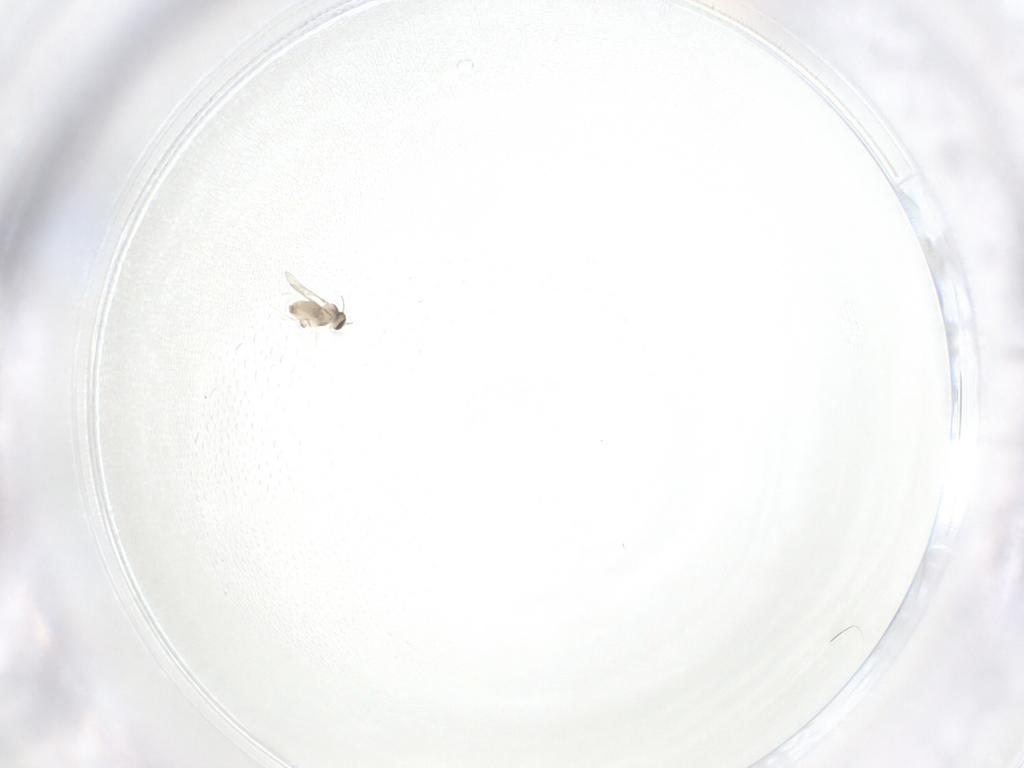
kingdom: Animalia
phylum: Arthropoda
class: Insecta
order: Hemiptera
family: Aleyrodidae
